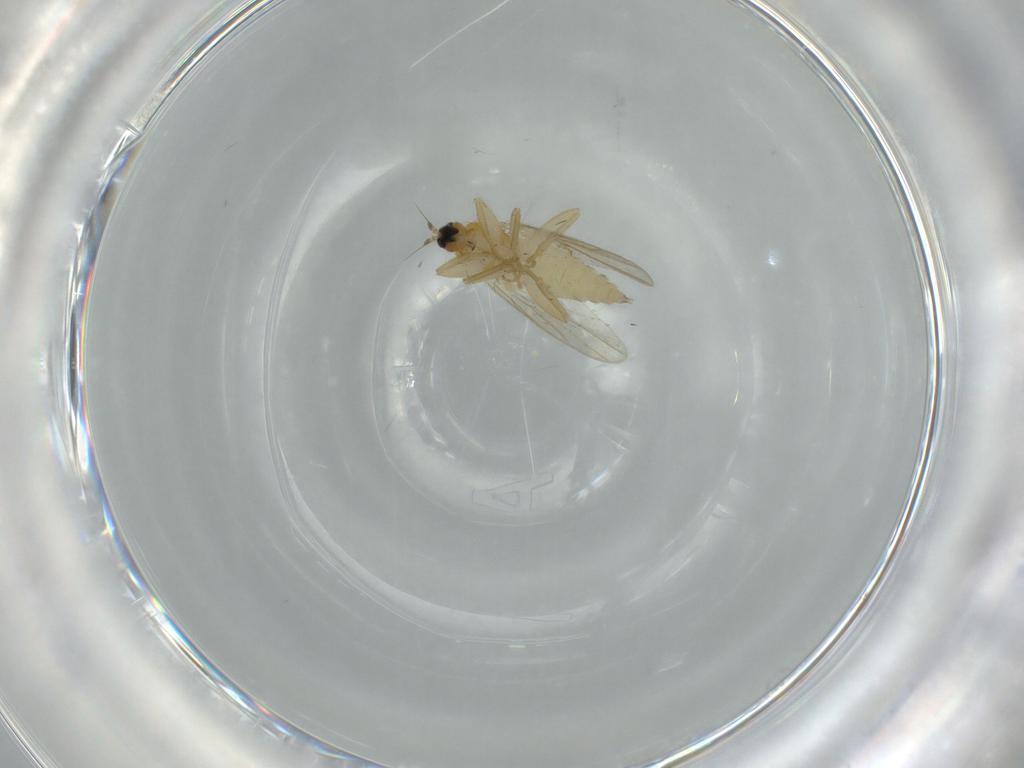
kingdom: Animalia
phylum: Arthropoda
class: Insecta
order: Diptera
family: Hybotidae
